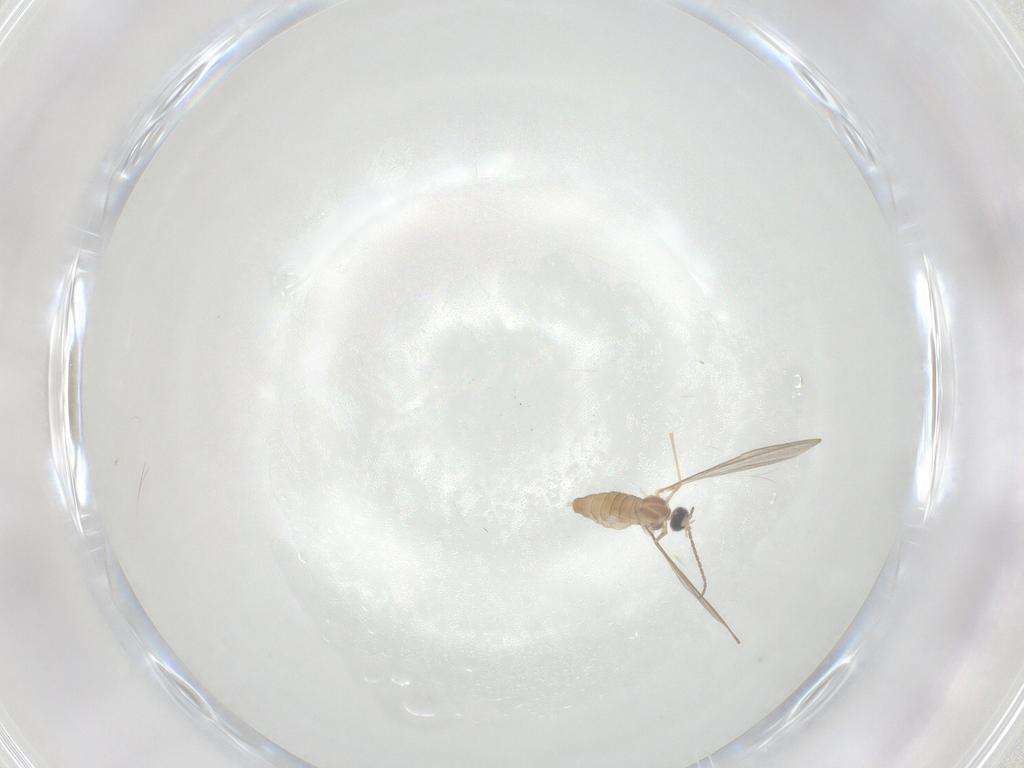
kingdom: Animalia
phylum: Arthropoda
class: Insecta
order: Diptera
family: Cecidomyiidae
